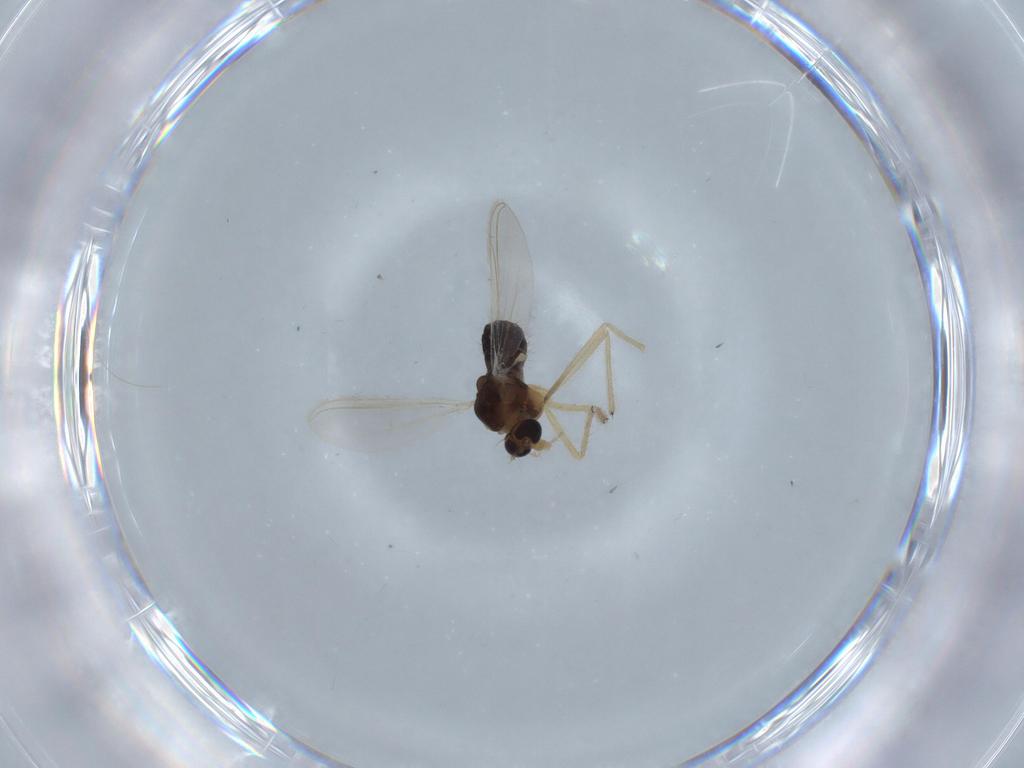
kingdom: Animalia
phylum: Arthropoda
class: Insecta
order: Diptera
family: Chironomidae
